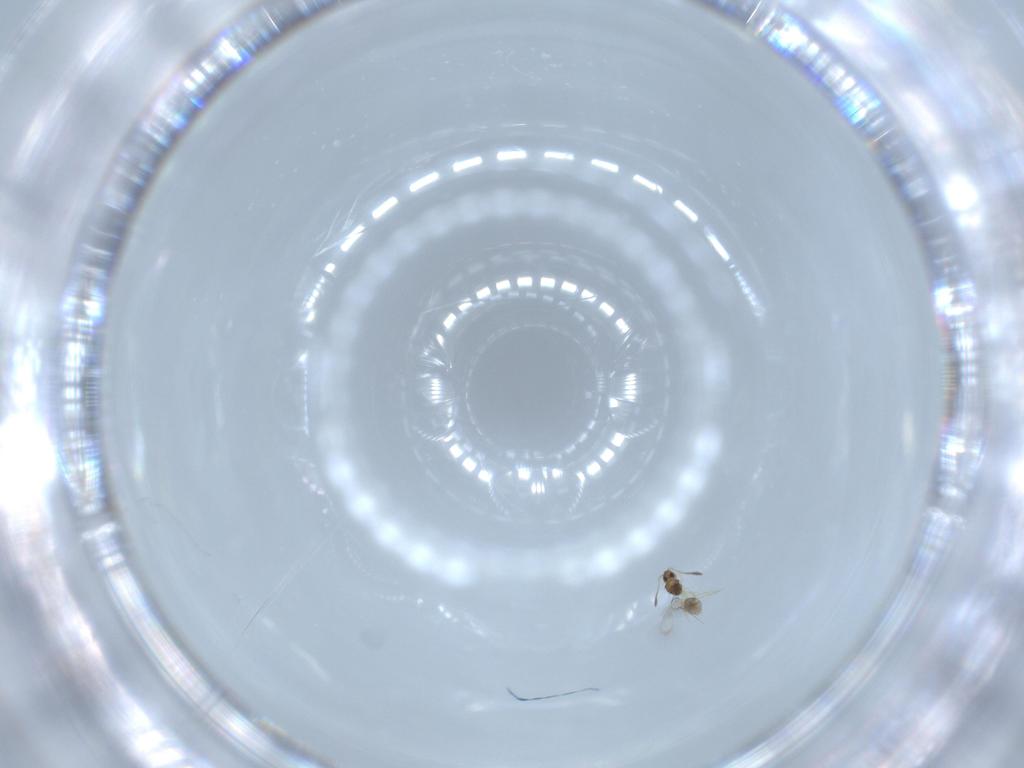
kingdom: Animalia
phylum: Arthropoda
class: Insecta
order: Hymenoptera
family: Mymarommatidae
